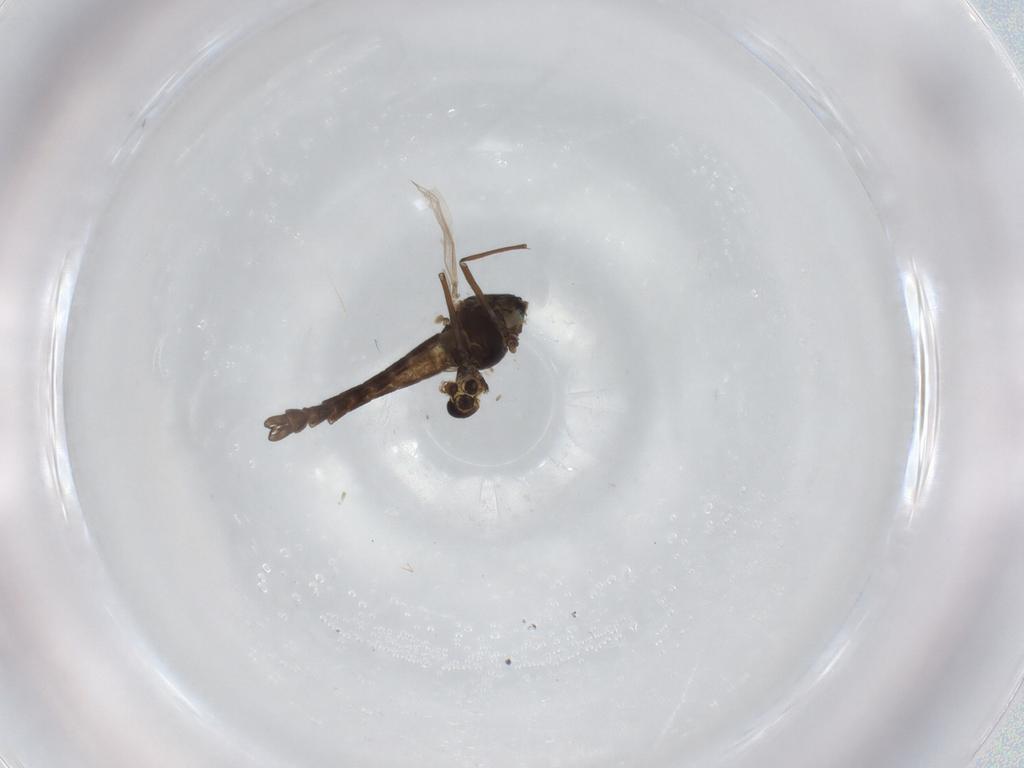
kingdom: Animalia
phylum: Arthropoda
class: Insecta
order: Diptera
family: Chironomidae
